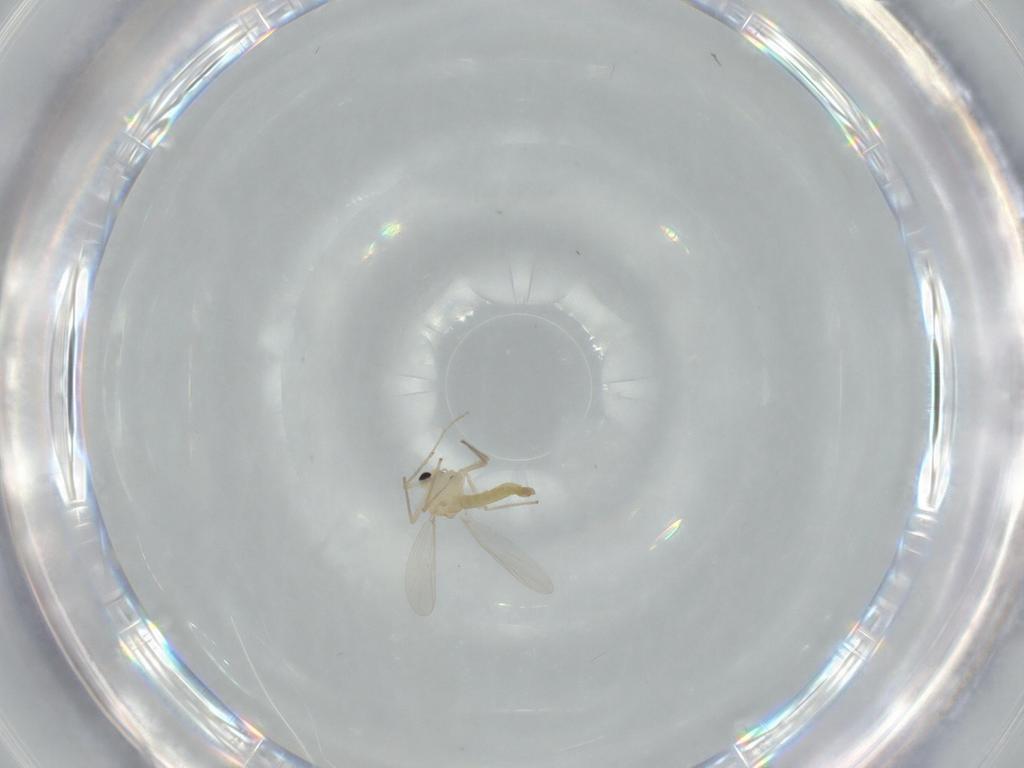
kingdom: Animalia
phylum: Arthropoda
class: Insecta
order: Diptera
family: Chironomidae
